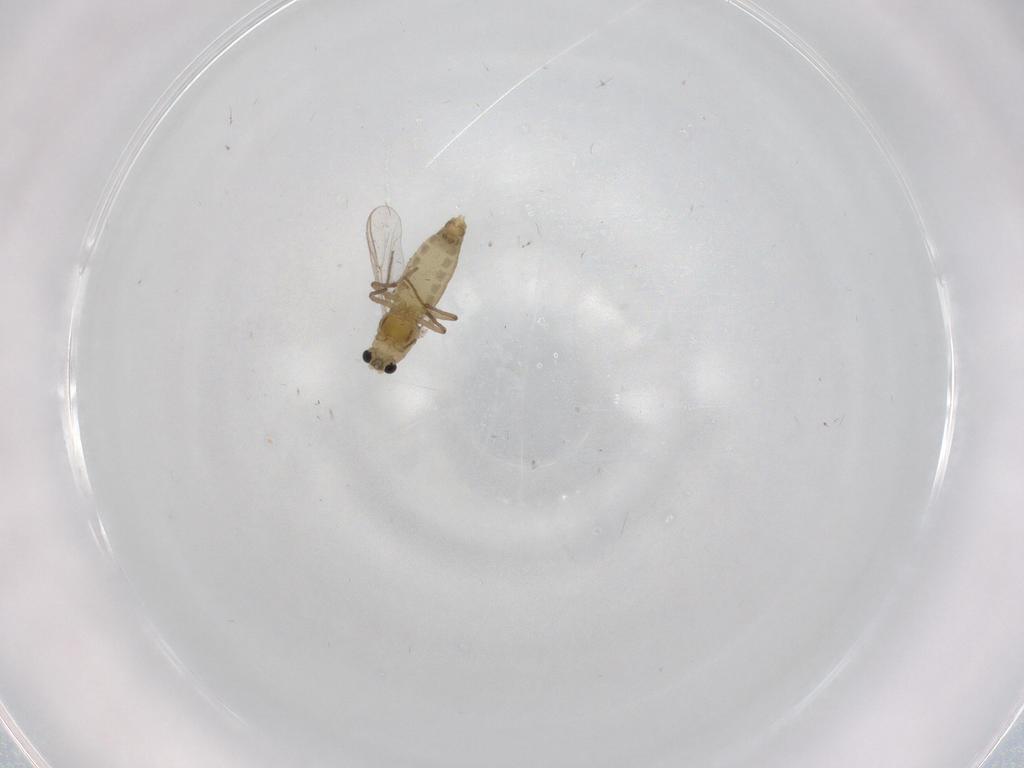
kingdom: Animalia
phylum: Arthropoda
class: Insecta
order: Diptera
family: Chironomidae
